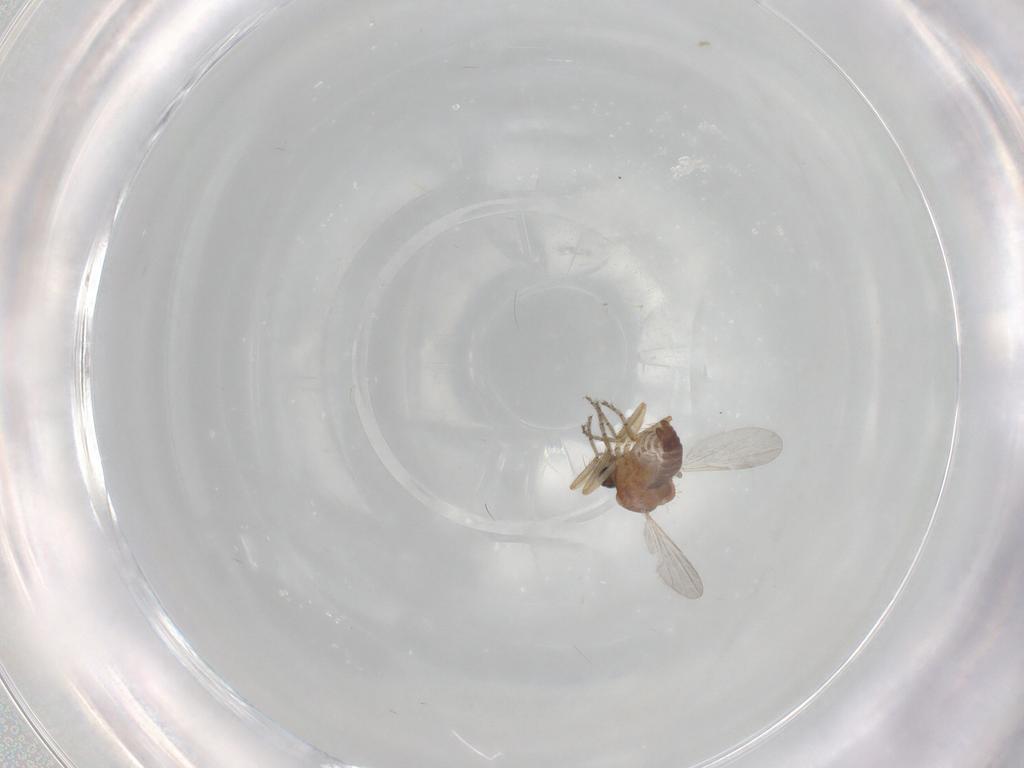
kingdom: Animalia
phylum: Arthropoda
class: Insecta
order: Diptera
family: Ceratopogonidae
